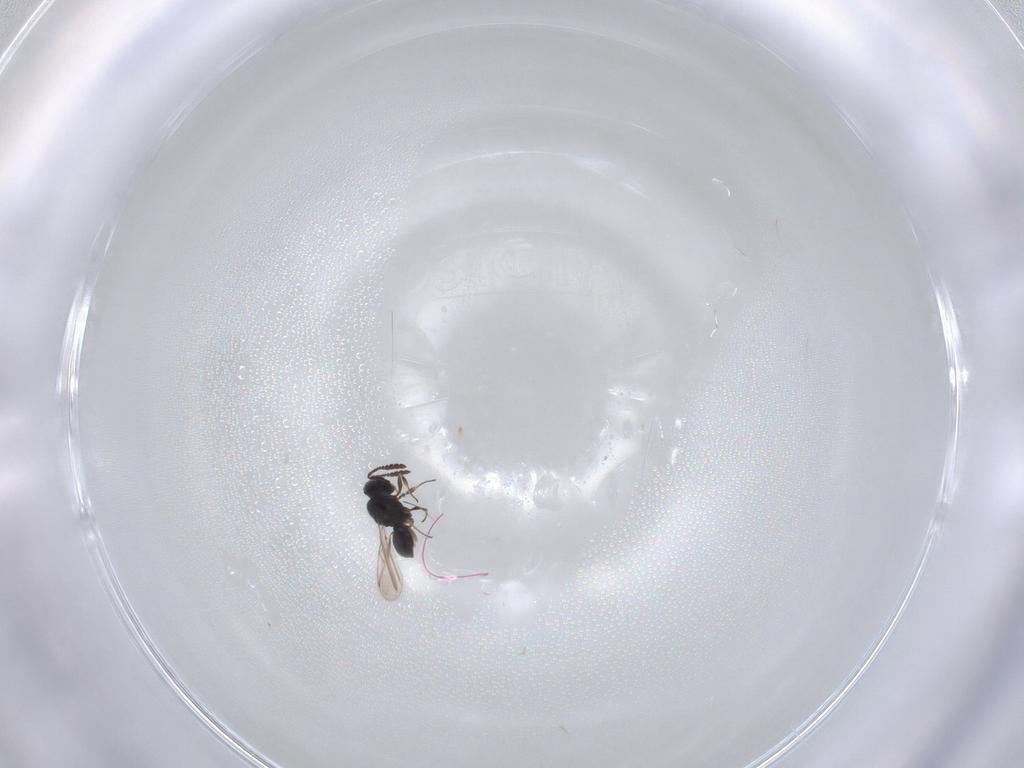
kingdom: Animalia
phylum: Arthropoda
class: Insecta
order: Hymenoptera
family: Scelionidae
